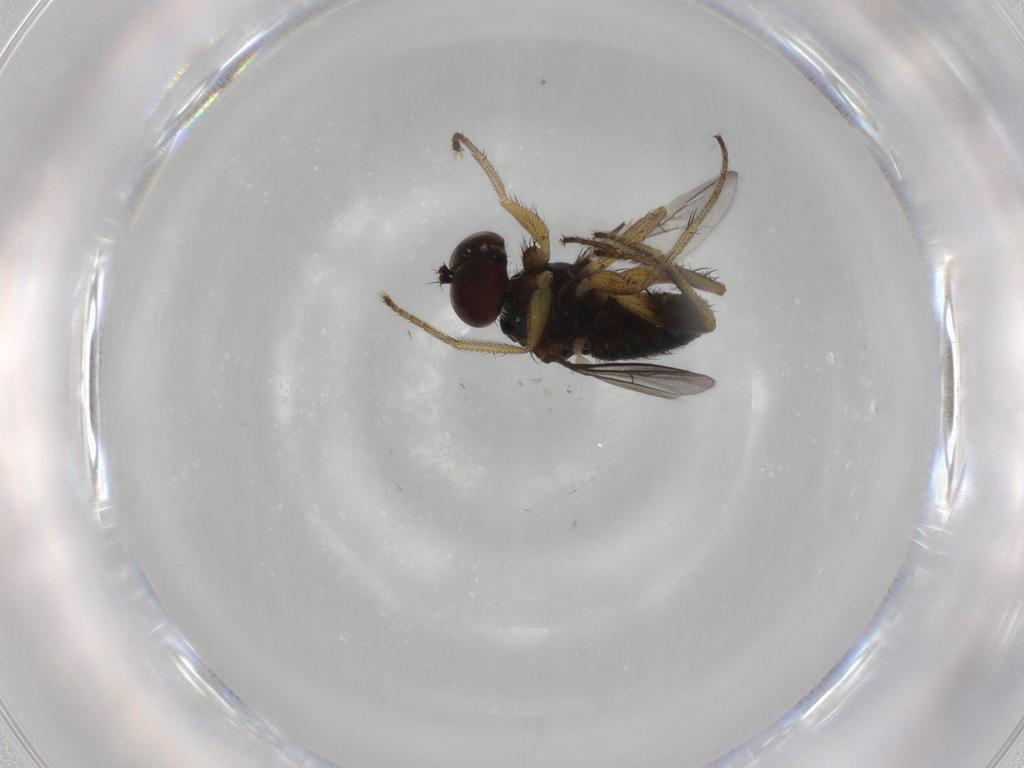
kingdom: Animalia
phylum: Arthropoda
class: Insecta
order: Diptera
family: Dolichopodidae
